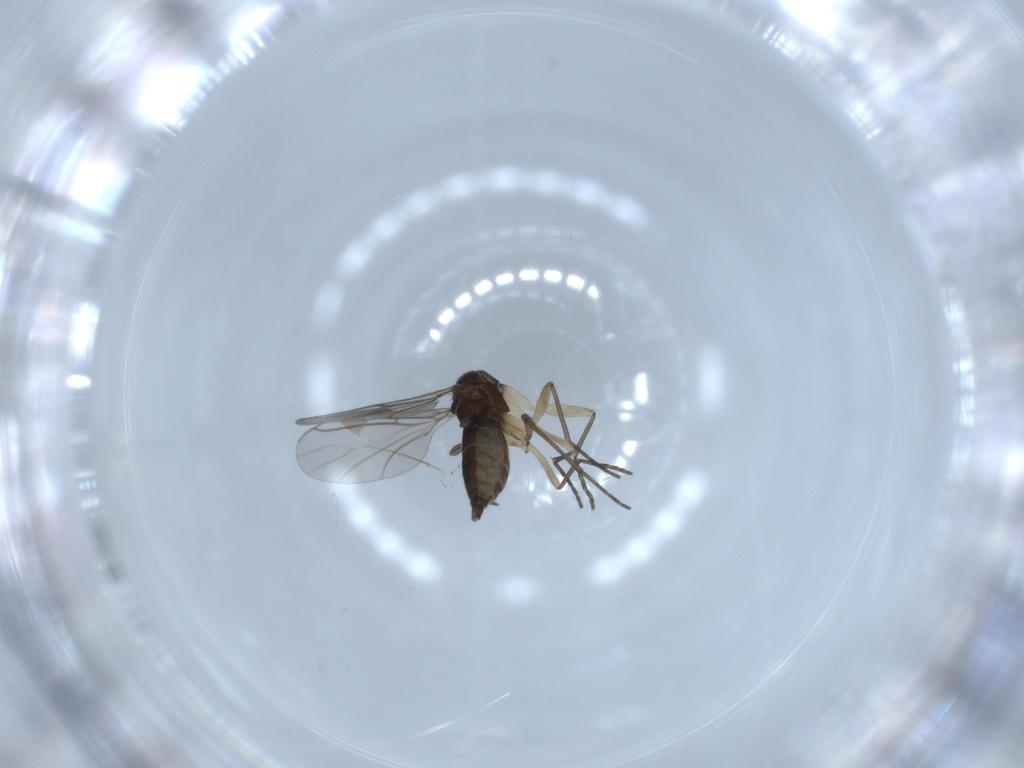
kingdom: Animalia
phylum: Arthropoda
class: Insecta
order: Diptera
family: Sciaridae
